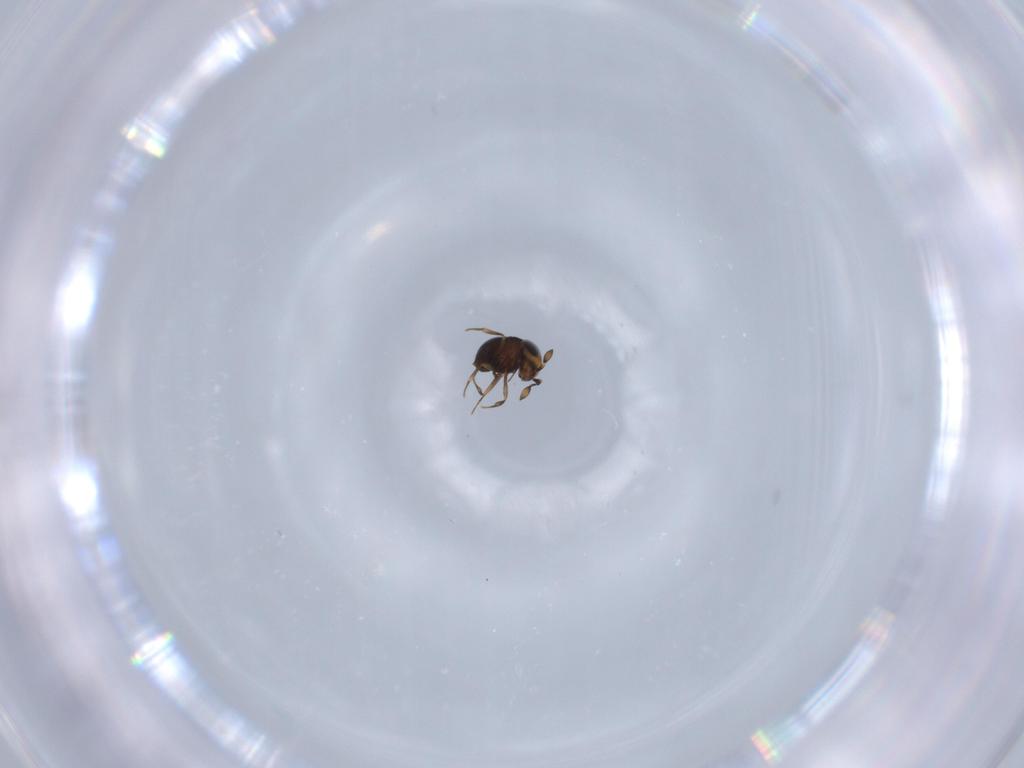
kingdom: Animalia
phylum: Arthropoda
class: Insecta
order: Hymenoptera
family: Scelionidae
